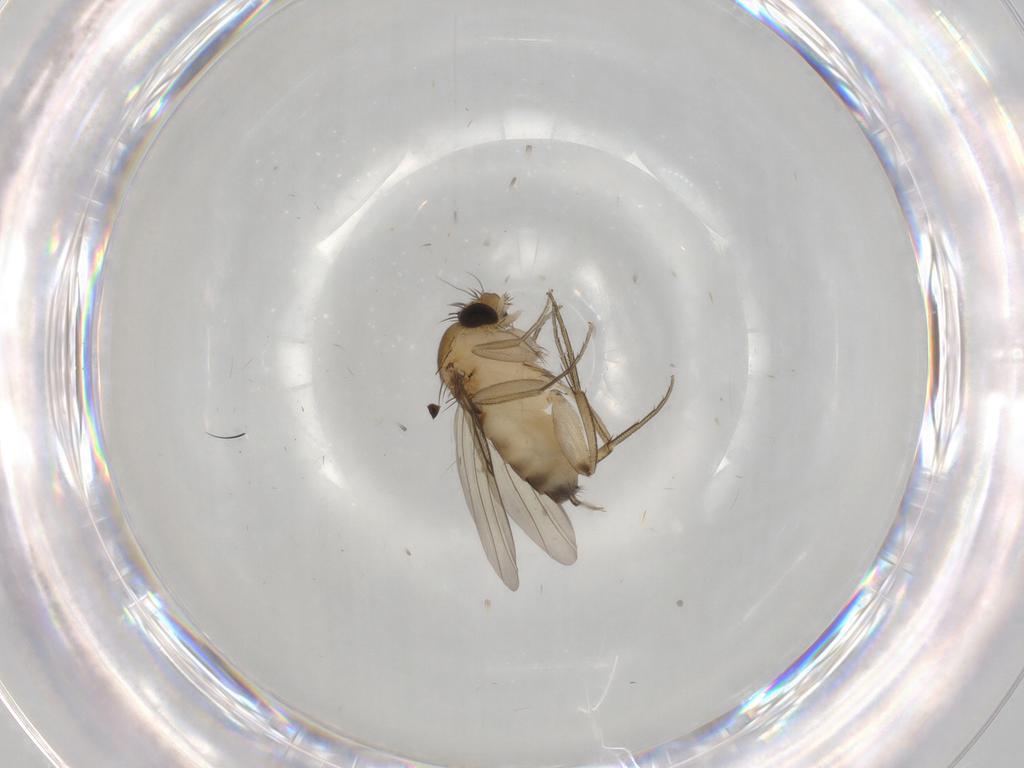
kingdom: Animalia
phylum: Arthropoda
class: Insecta
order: Diptera
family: Phoridae
